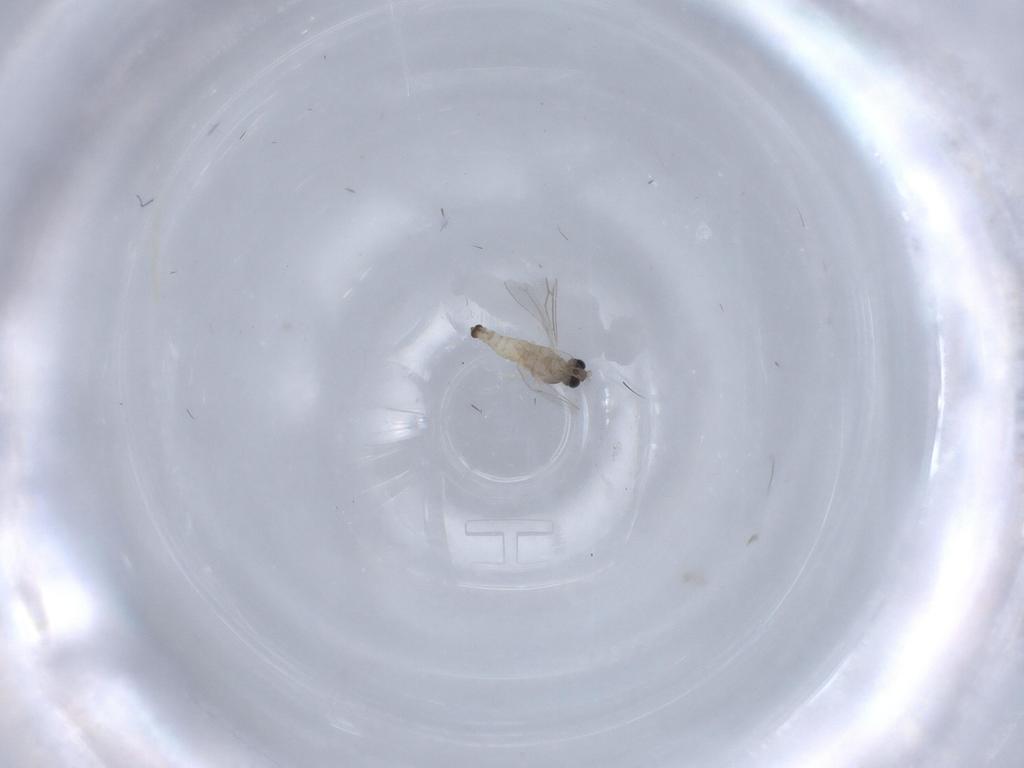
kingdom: Animalia
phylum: Arthropoda
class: Insecta
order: Diptera
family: Cecidomyiidae
